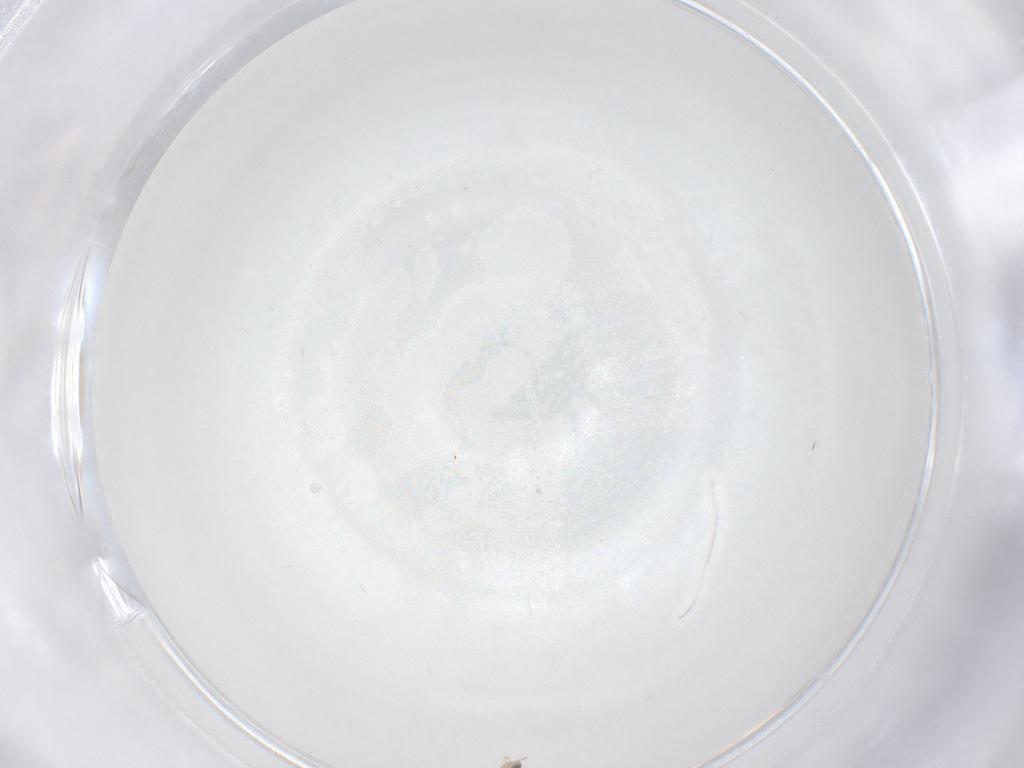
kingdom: Animalia
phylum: Arthropoda
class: Insecta
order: Diptera
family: Cecidomyiidae
